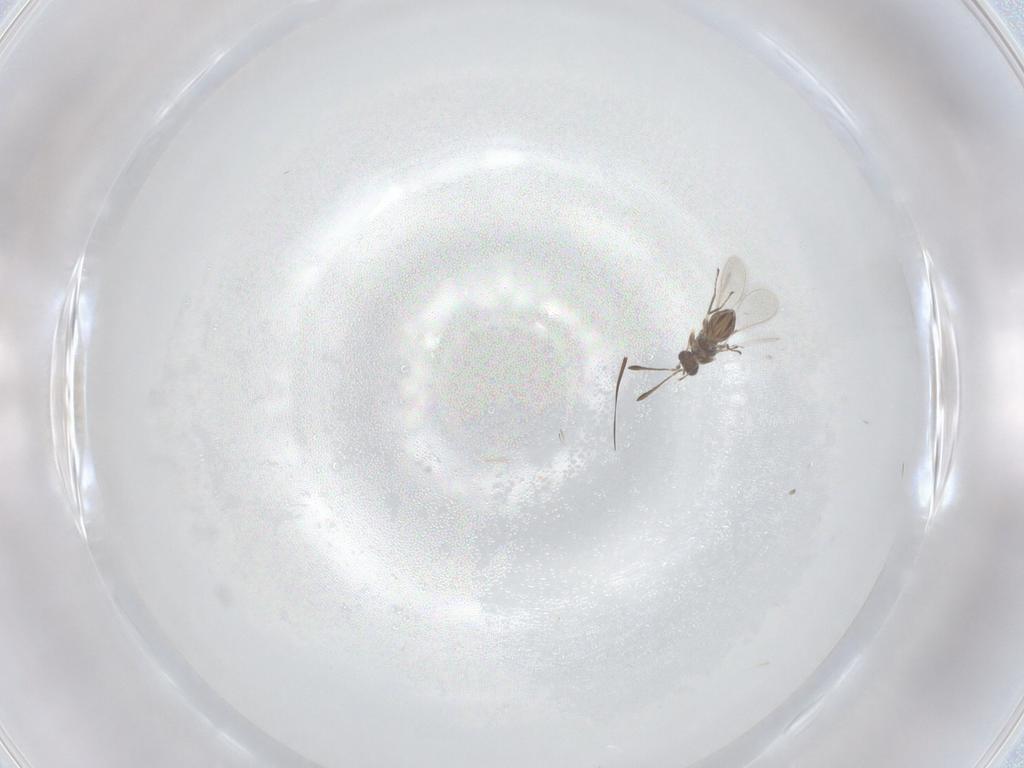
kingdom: Animalia
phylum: Arthropoda
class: Insecta
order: Hymenoptera
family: Mymaridae
